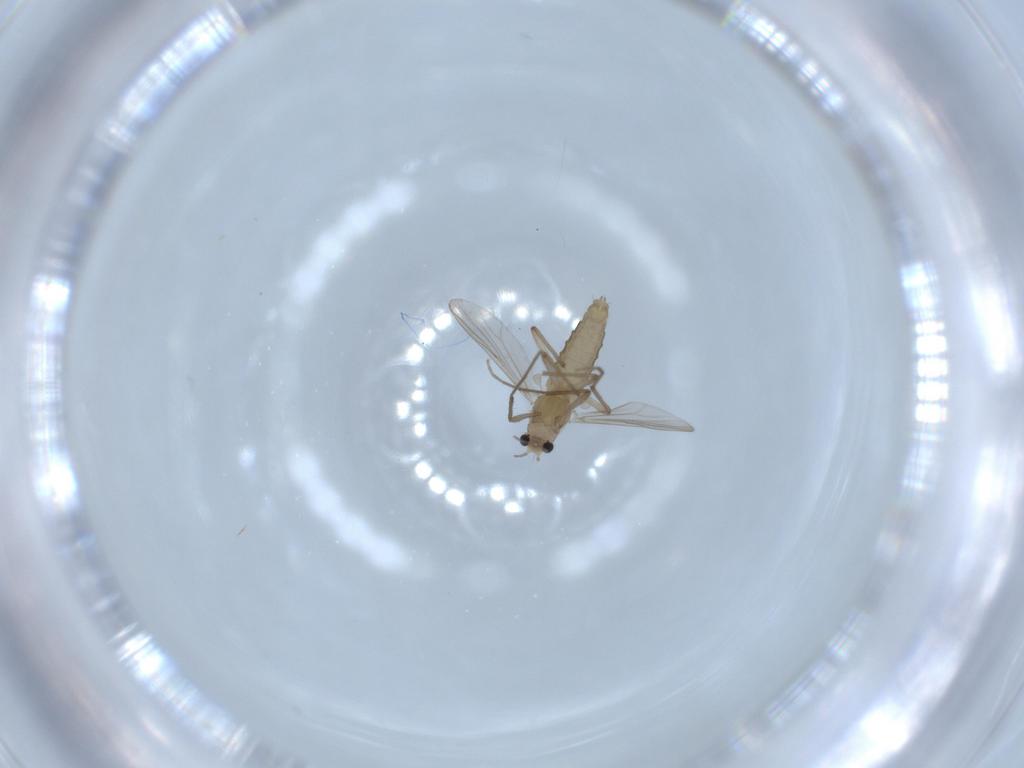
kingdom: Animalia
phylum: Arthropoda
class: Insecta
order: Diptera
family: Chironomidae
